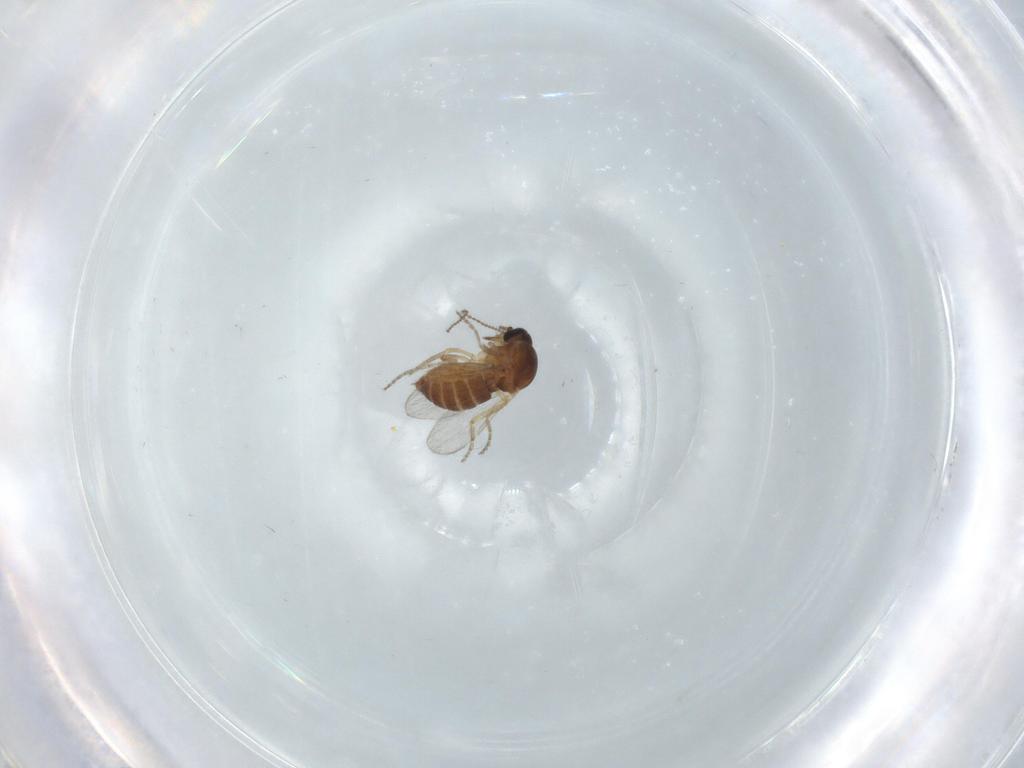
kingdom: Animalia
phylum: Arthropoda
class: Insecta
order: Diptera
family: Ceratopogonidae
